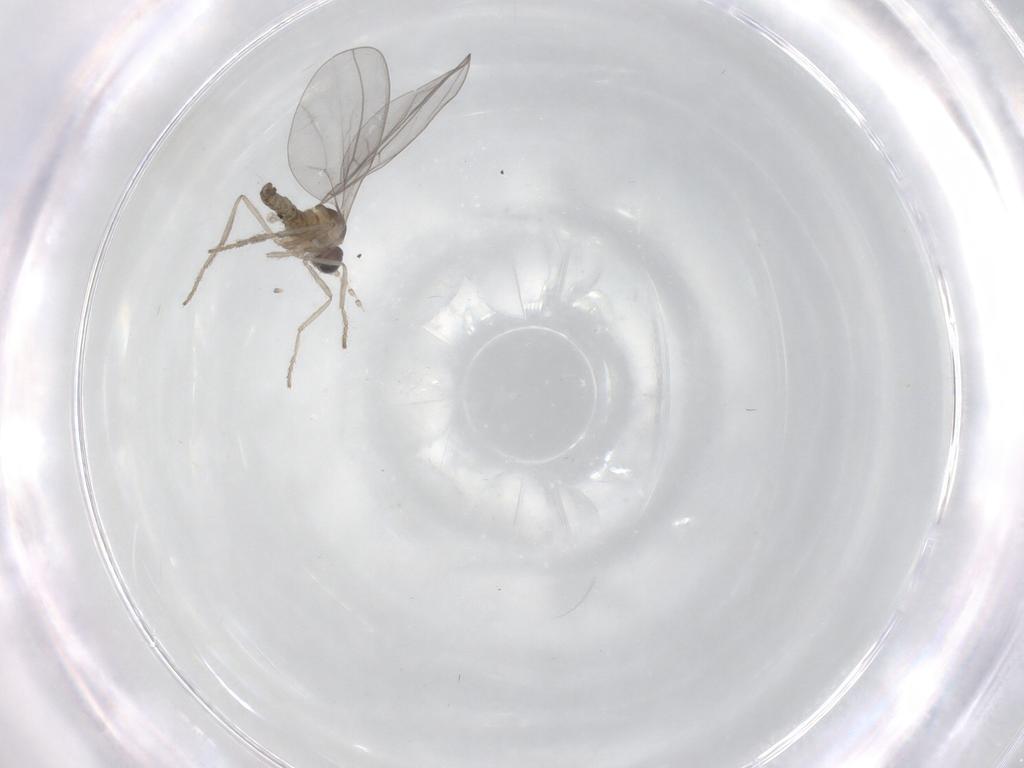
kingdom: Animalia
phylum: Arthropoda
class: Insecta
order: Diptera
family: Cecidomyiidae
